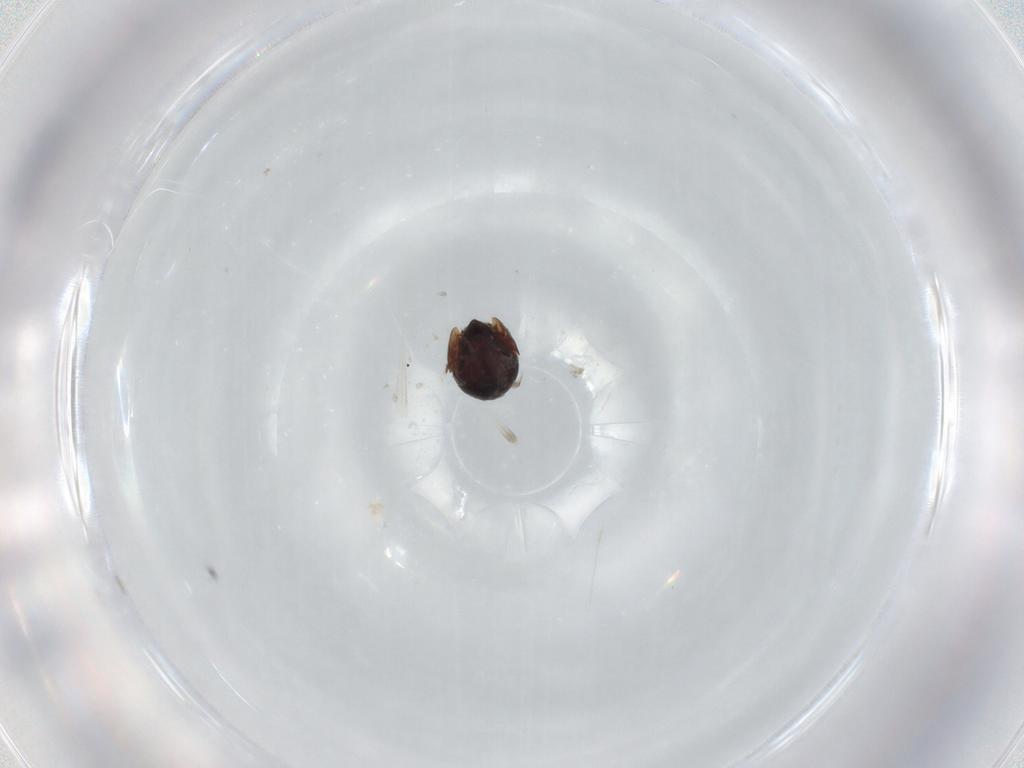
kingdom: Animalia
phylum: Arthropoda
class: Arachnida
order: Sarcoptiformes
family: Ceratozetidae
